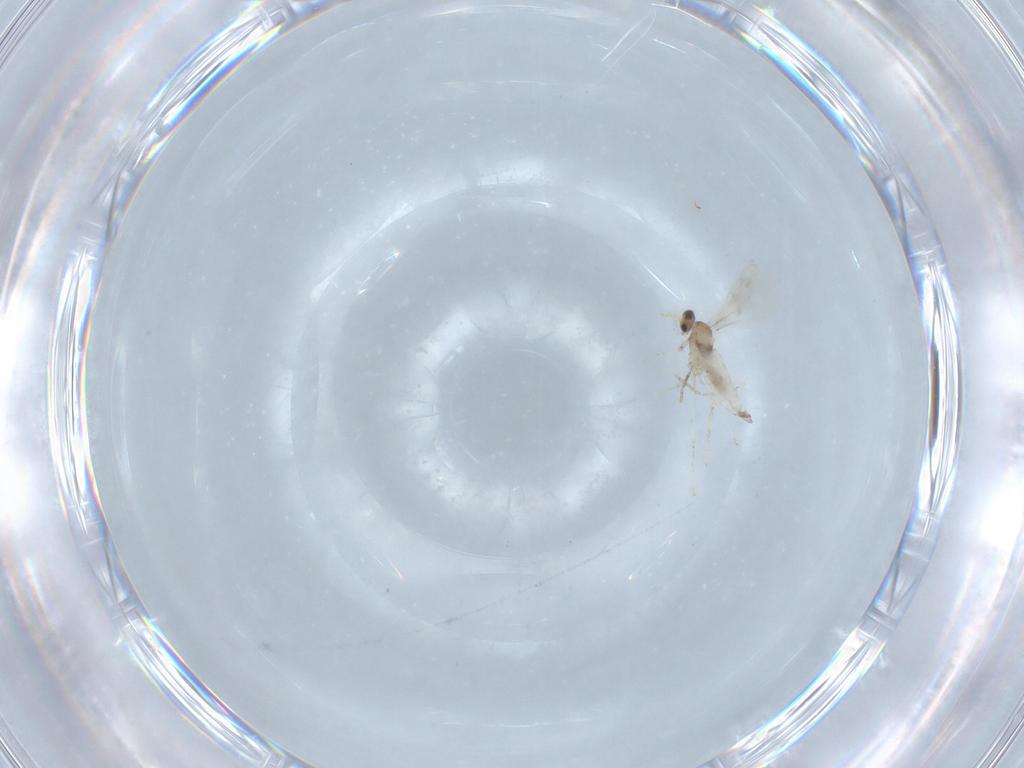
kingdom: Animalia
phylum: Arthropoda
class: Insecta
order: Diptera
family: Cecidomyiidae
